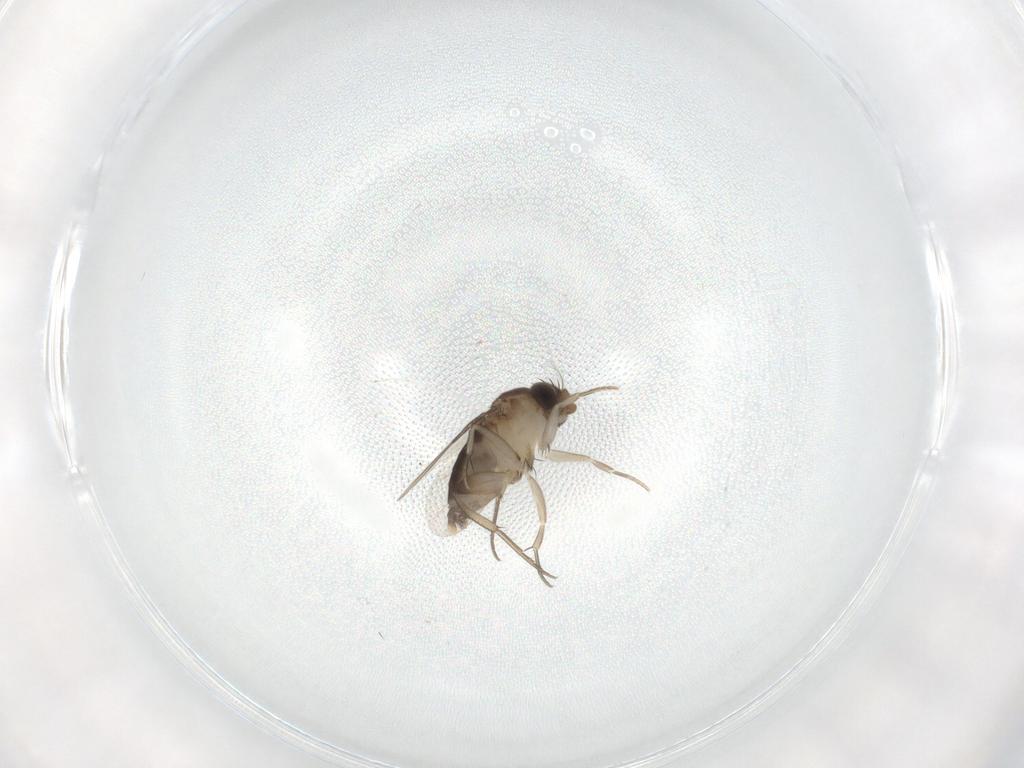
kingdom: Animalia
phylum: Arthropoda
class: Insecta
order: Diptera
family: Phoridae
